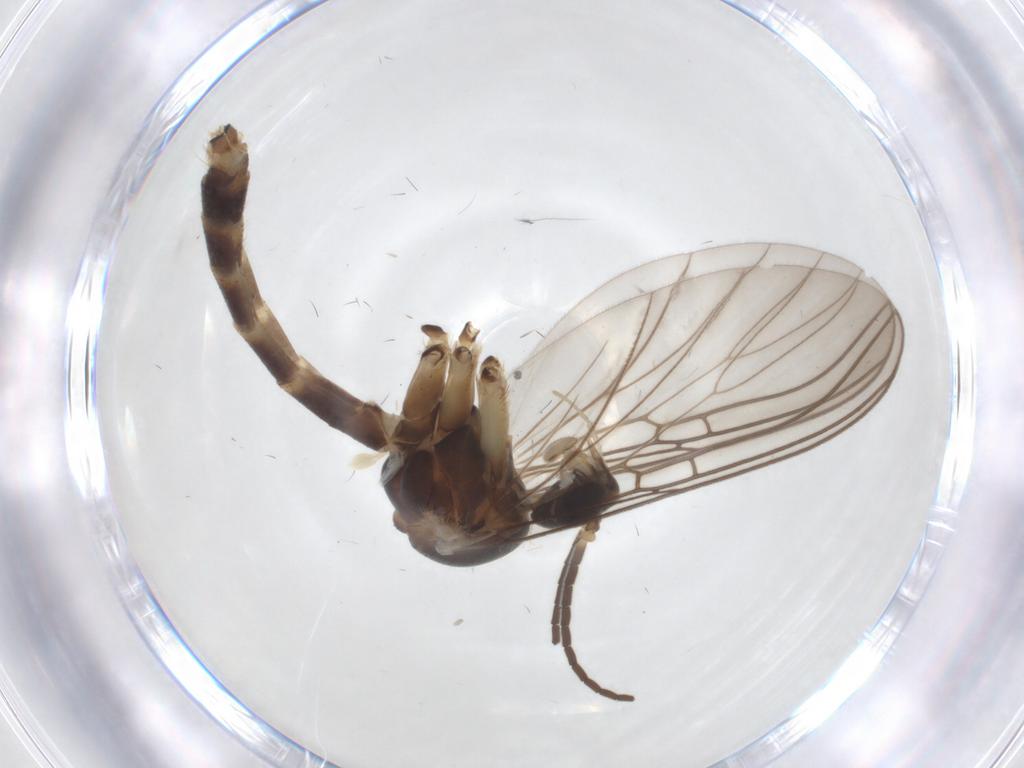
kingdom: Animalia
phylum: Arthropoda
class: Insecta
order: Diptera
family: Mycetophilidae
